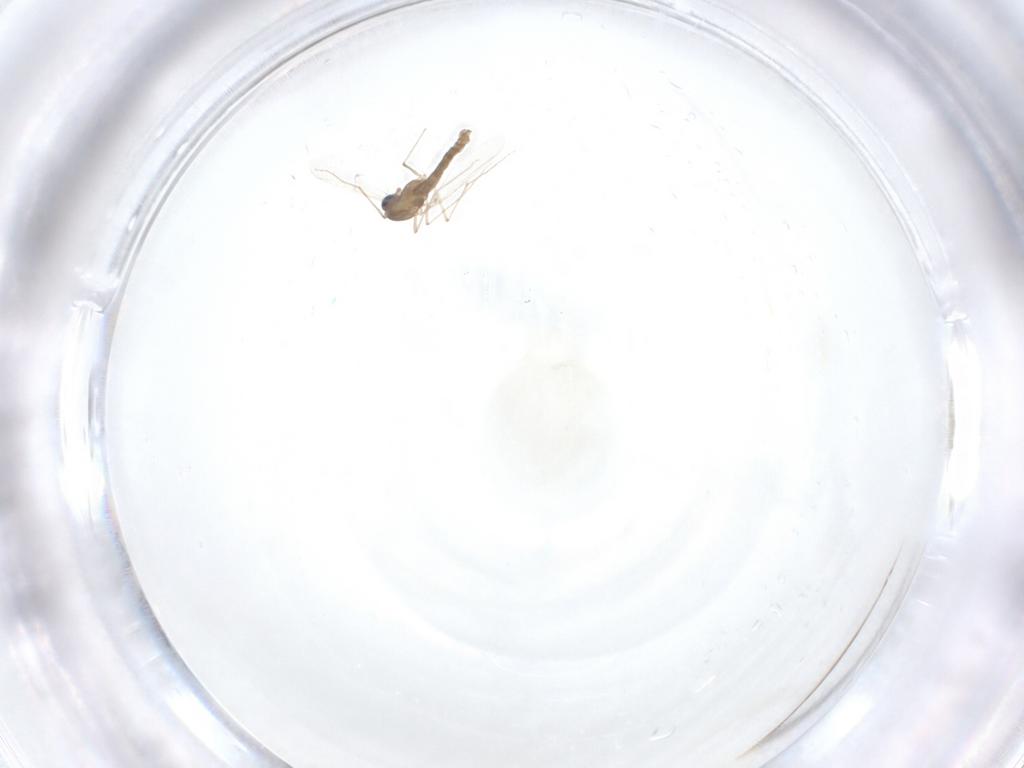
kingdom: Animalia
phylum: Arthropoda
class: Insecta
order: Diptera
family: Chironomidae
